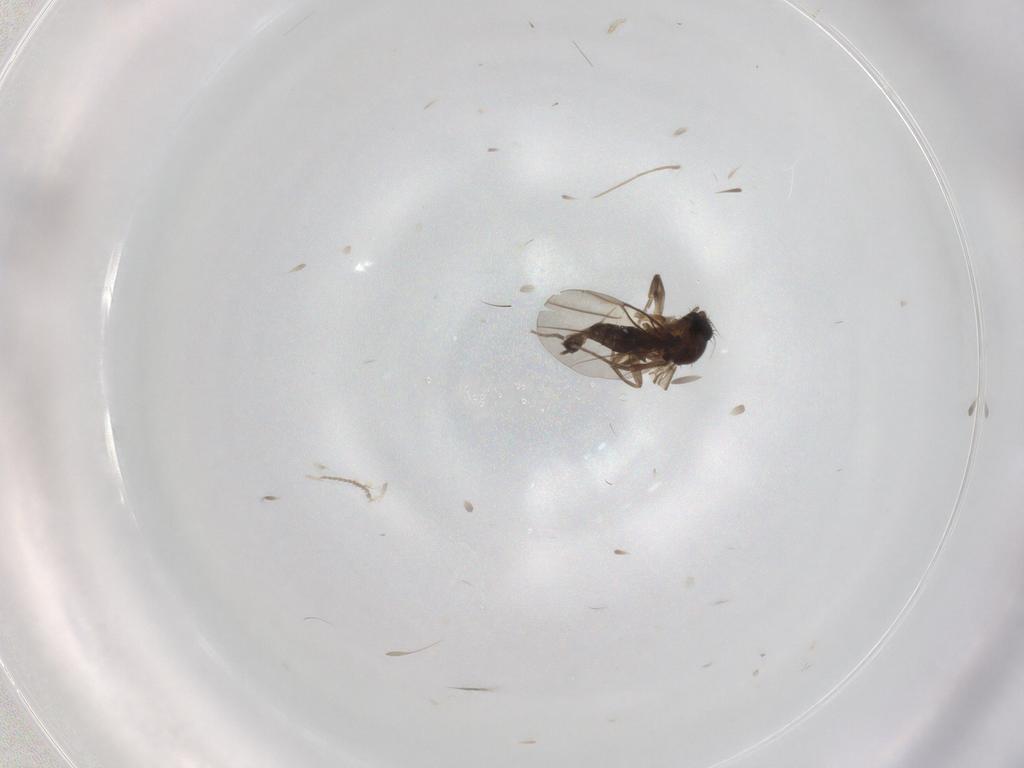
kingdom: Animalia
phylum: Arthropoda
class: Insecta
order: Diptera
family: Phoridae
